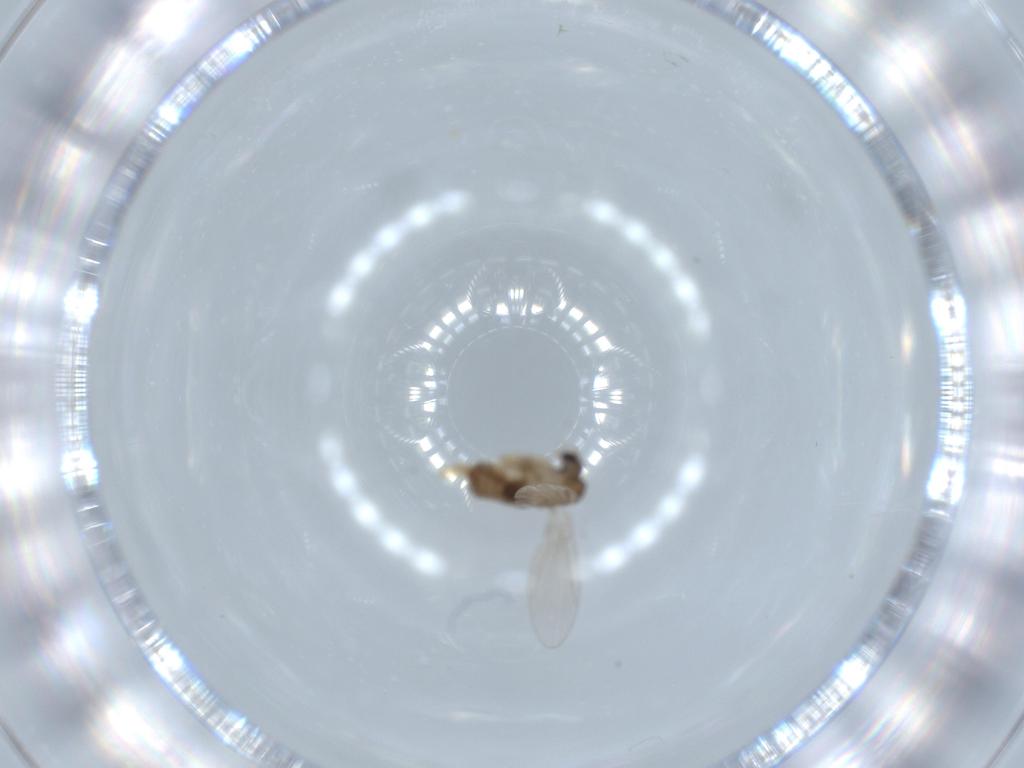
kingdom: Animalia
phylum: Arthropoda
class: Insecta
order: Diptera
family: Psychodidae
